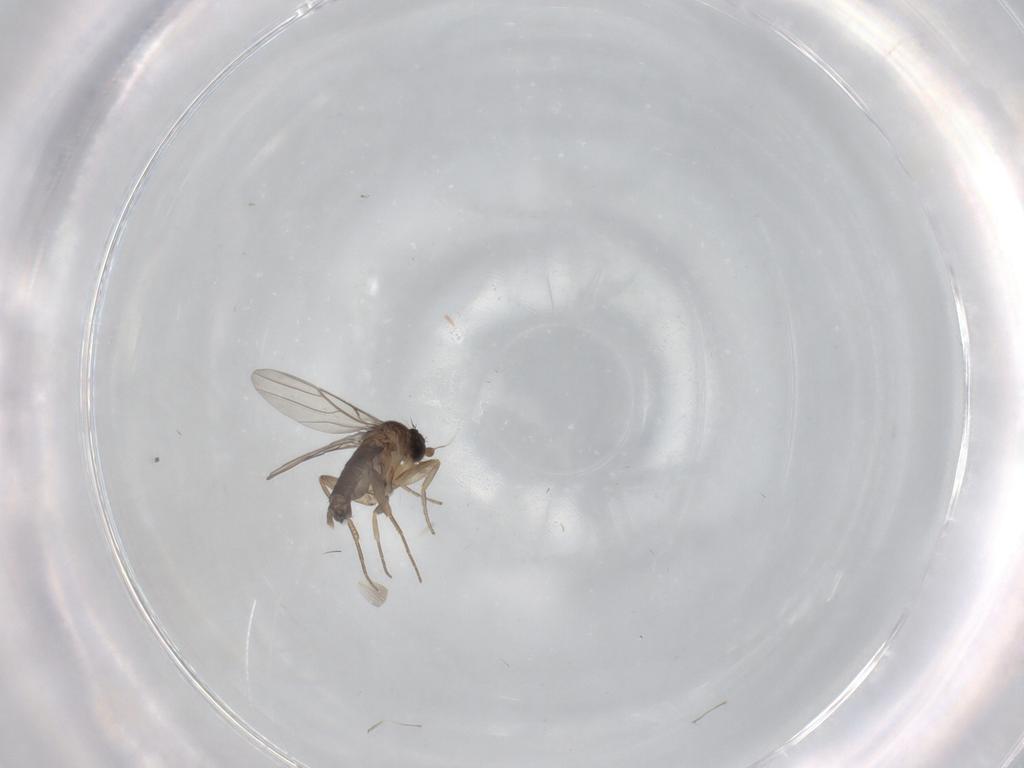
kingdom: Animalia
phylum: Arthropoda
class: Insecta
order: Diptera
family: Phoridae
